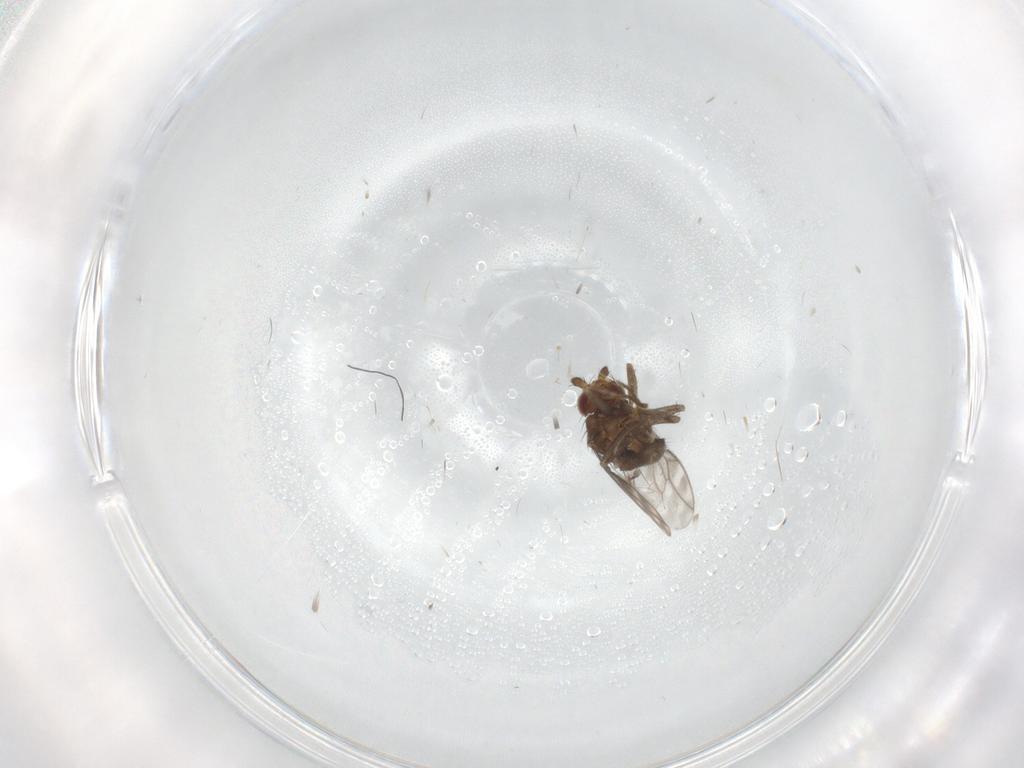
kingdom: Animalia
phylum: Arthropoda
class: Insecta
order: Diptera
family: Sphaeroceridae
